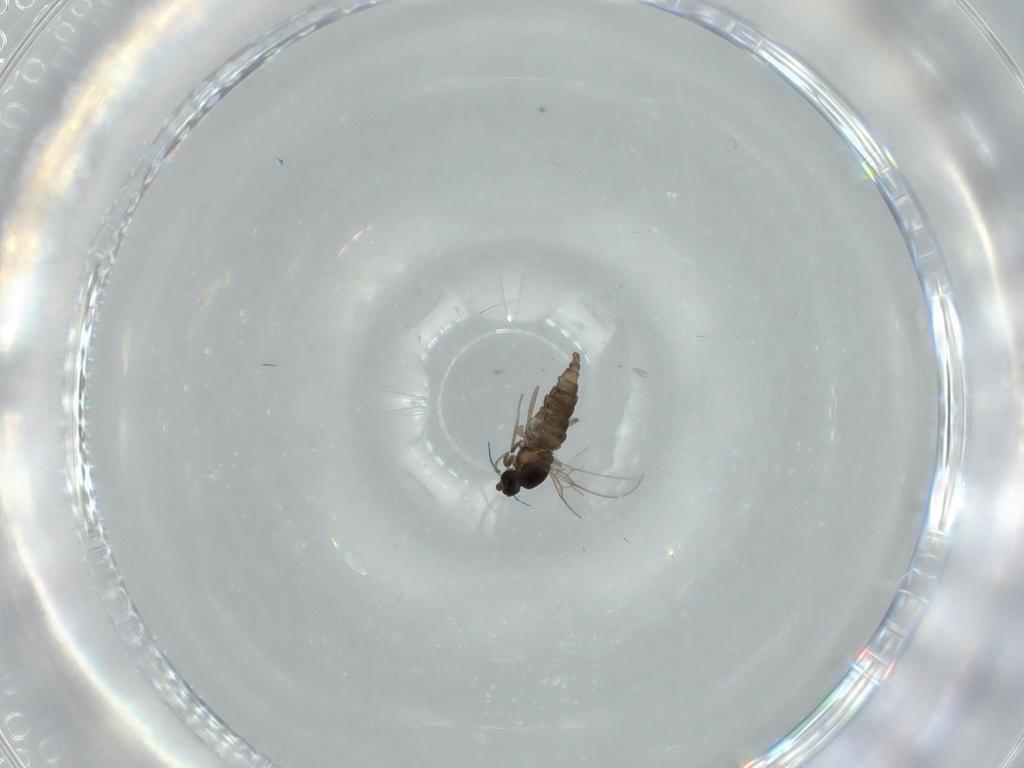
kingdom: Animalia
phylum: Arthropoda
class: Insecta
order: Diptera
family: Cecidomyiidae
